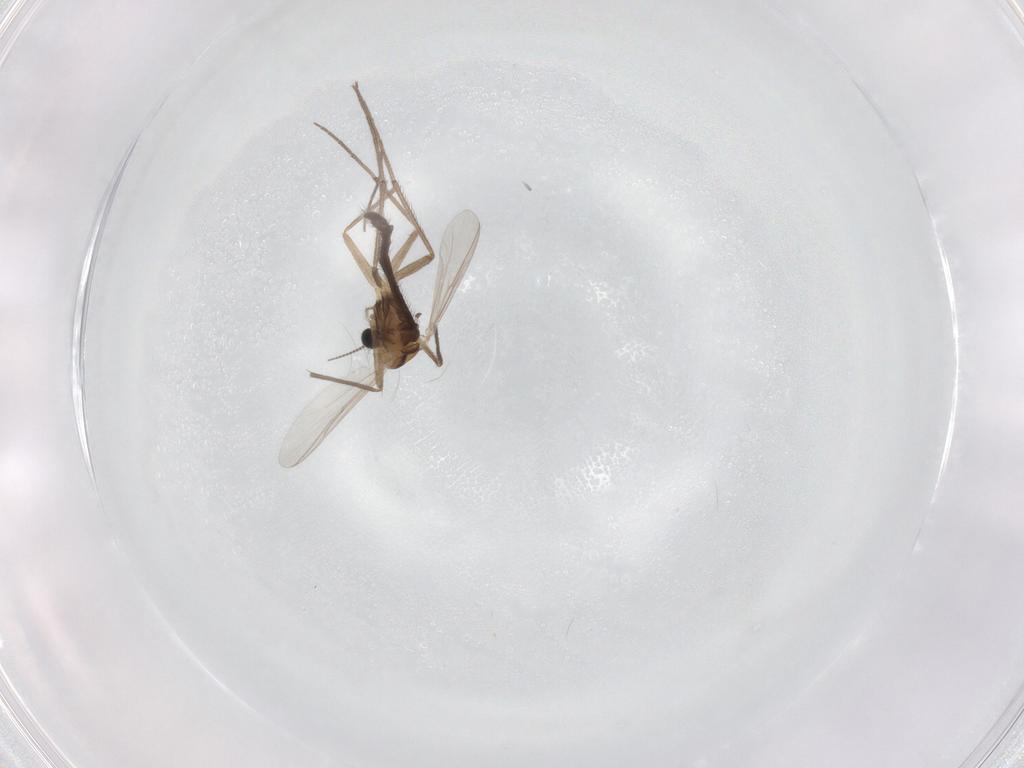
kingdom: Animalia
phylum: Arthropoda
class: Insecta
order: Diptera
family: Chironomidae
